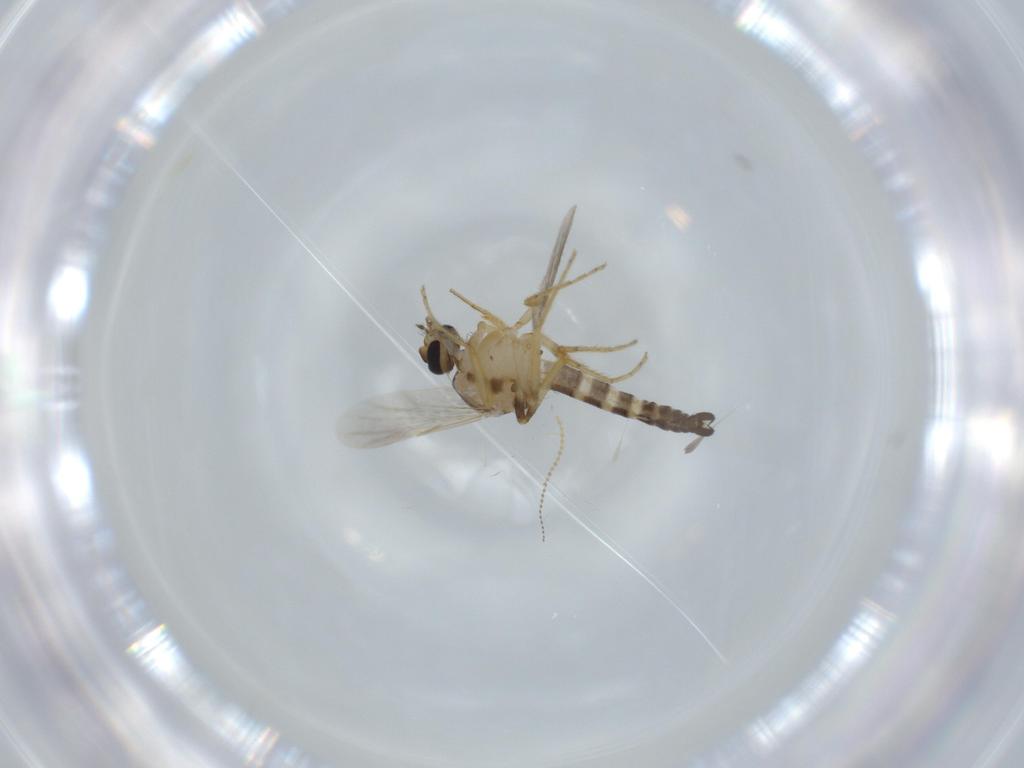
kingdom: Animalia
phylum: Arthropoda
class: Insecta
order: Diptera
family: Ceratopogonidae
